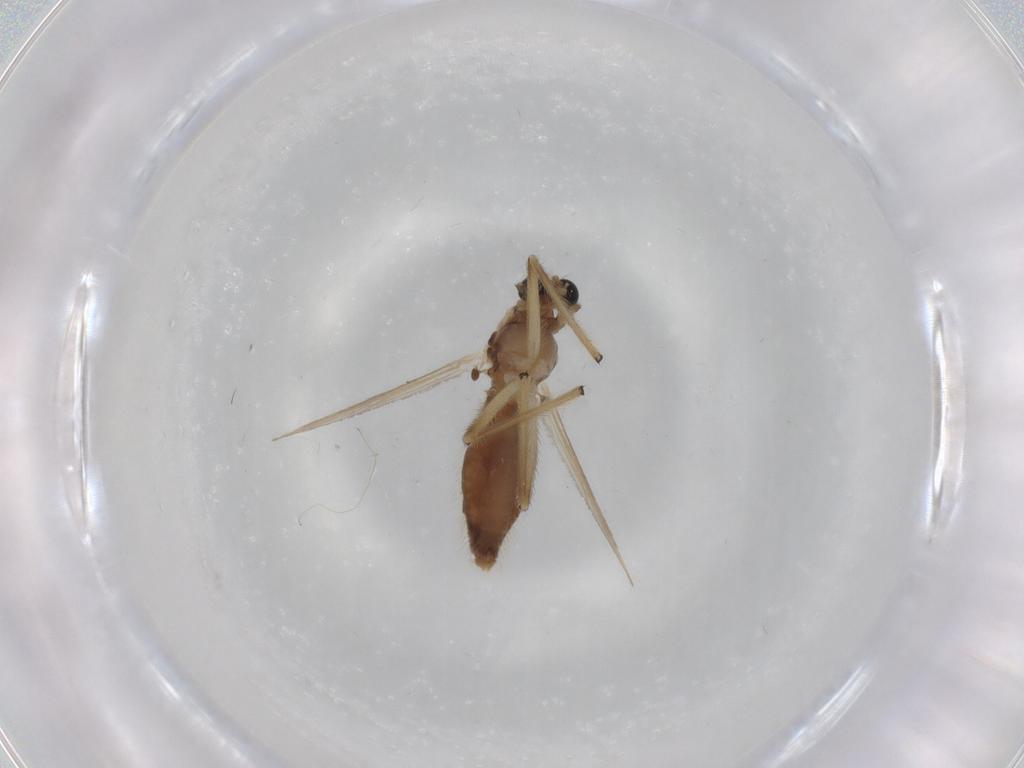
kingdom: Animalia
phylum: Arthropoda
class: Insecta
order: Diptera
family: Chironomidae
